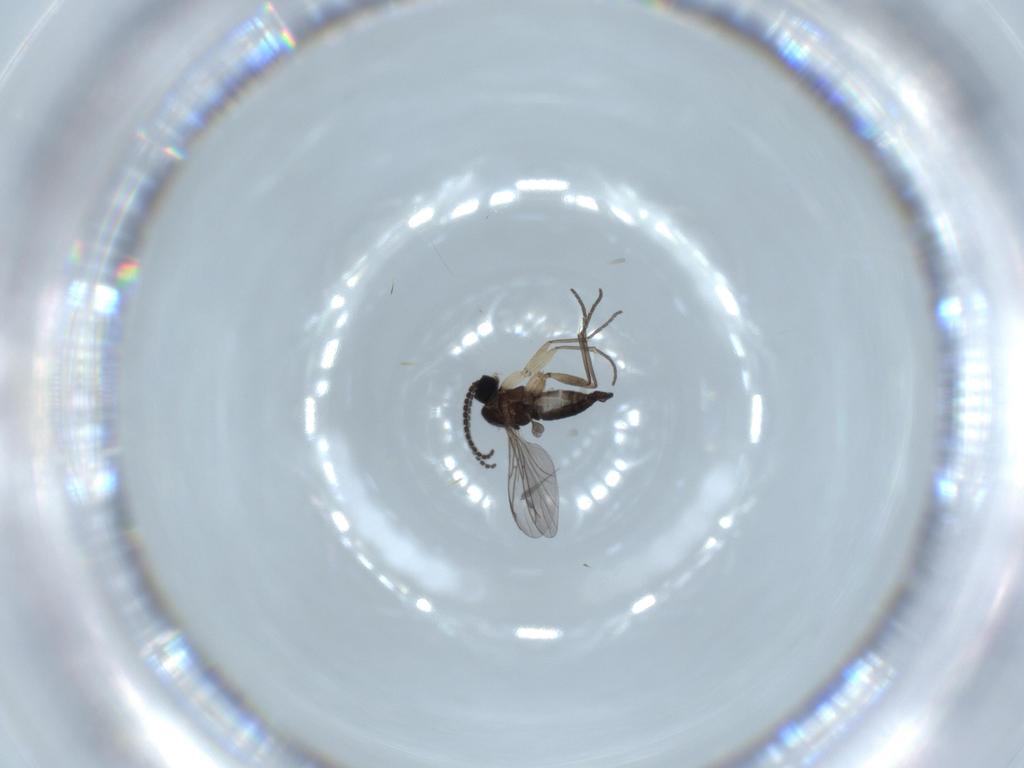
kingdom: Animalia
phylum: Arthropoda
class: Insecta
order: Diptera
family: Sciaridae
